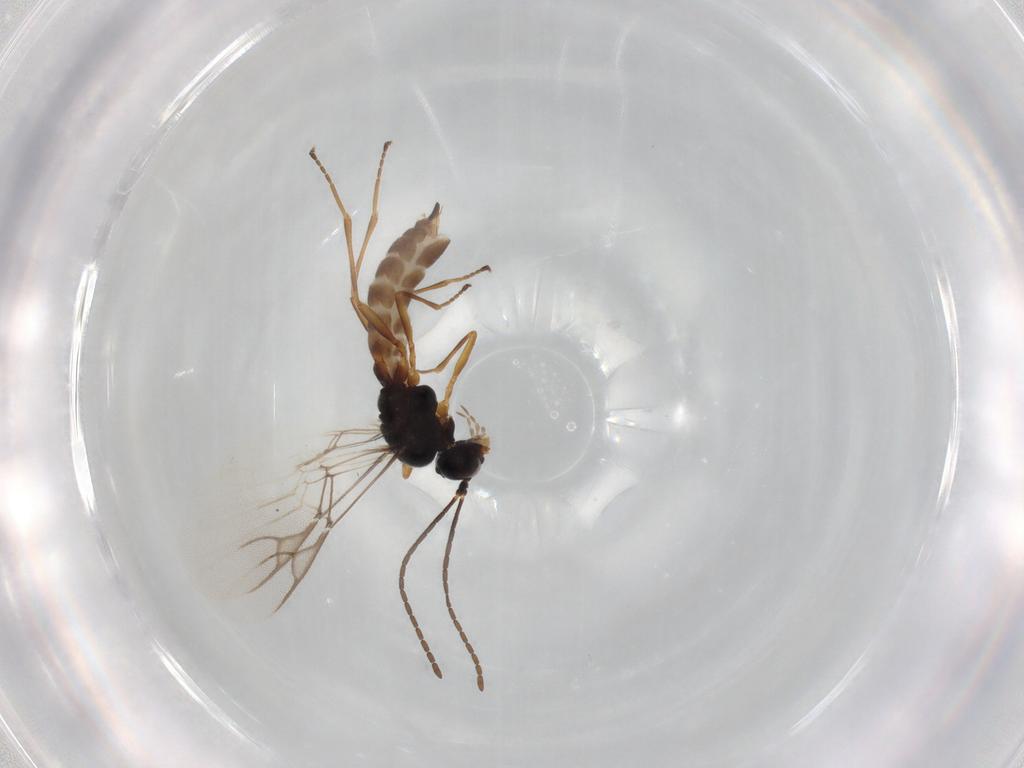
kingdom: Animalia
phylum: Arthropoda
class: Insecta
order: Hymenoptera
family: Braconidae
